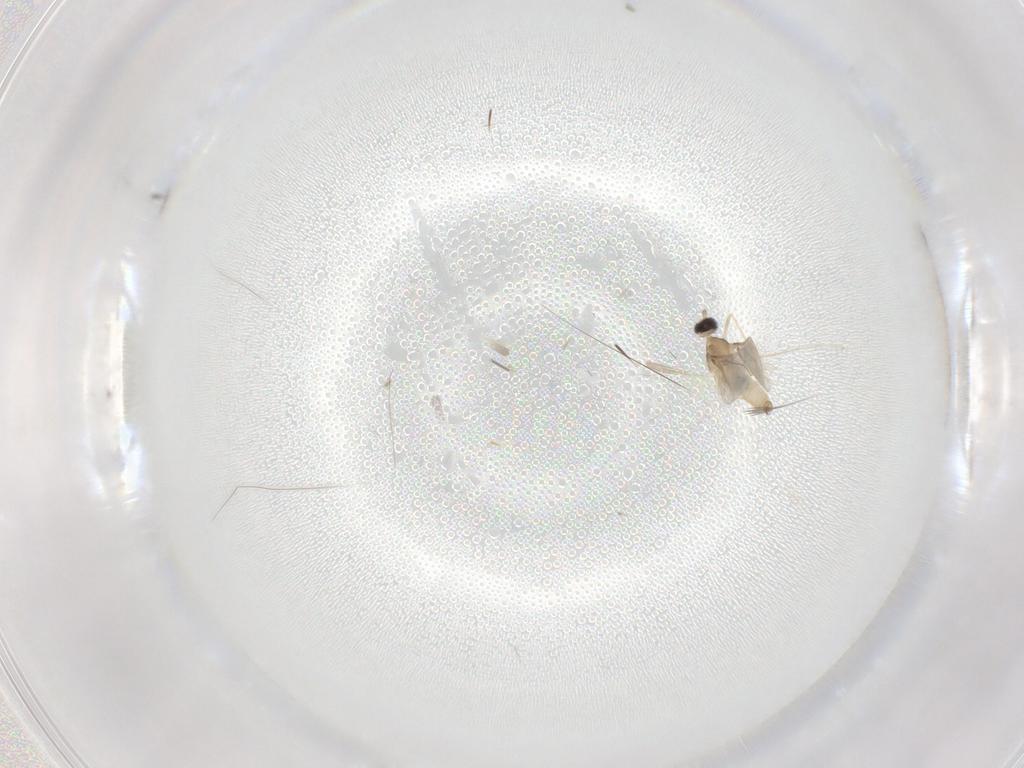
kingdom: Animalia
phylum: Arthropoda
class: Insecta
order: Diptera
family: Cecidomyiidae
